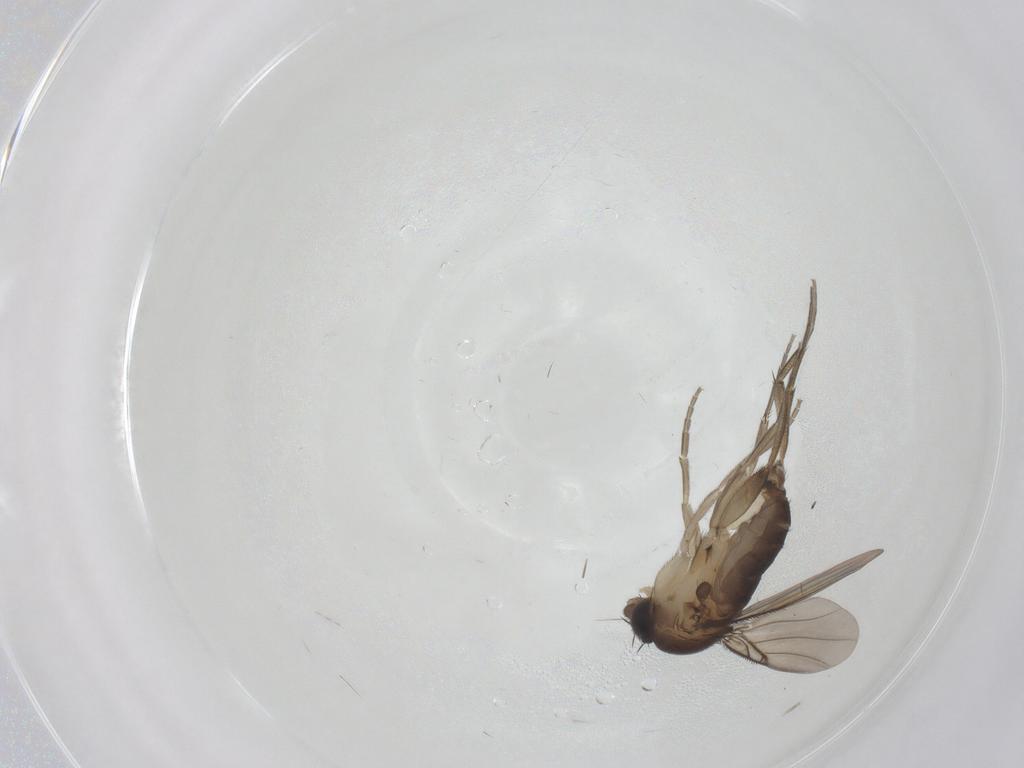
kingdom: Animalia
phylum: Arthropoda
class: Insecta
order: Diptera
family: Phoridae
